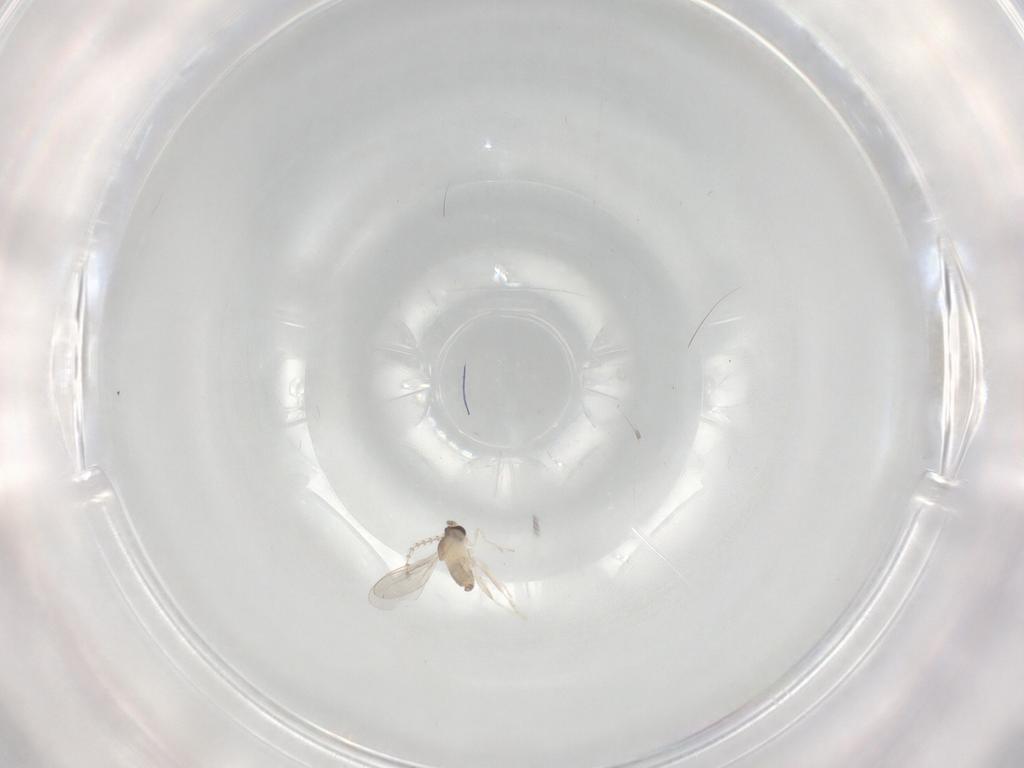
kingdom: Animalia
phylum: Arthropoda
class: Insecta
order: Diptera
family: Cecidomyiidae
